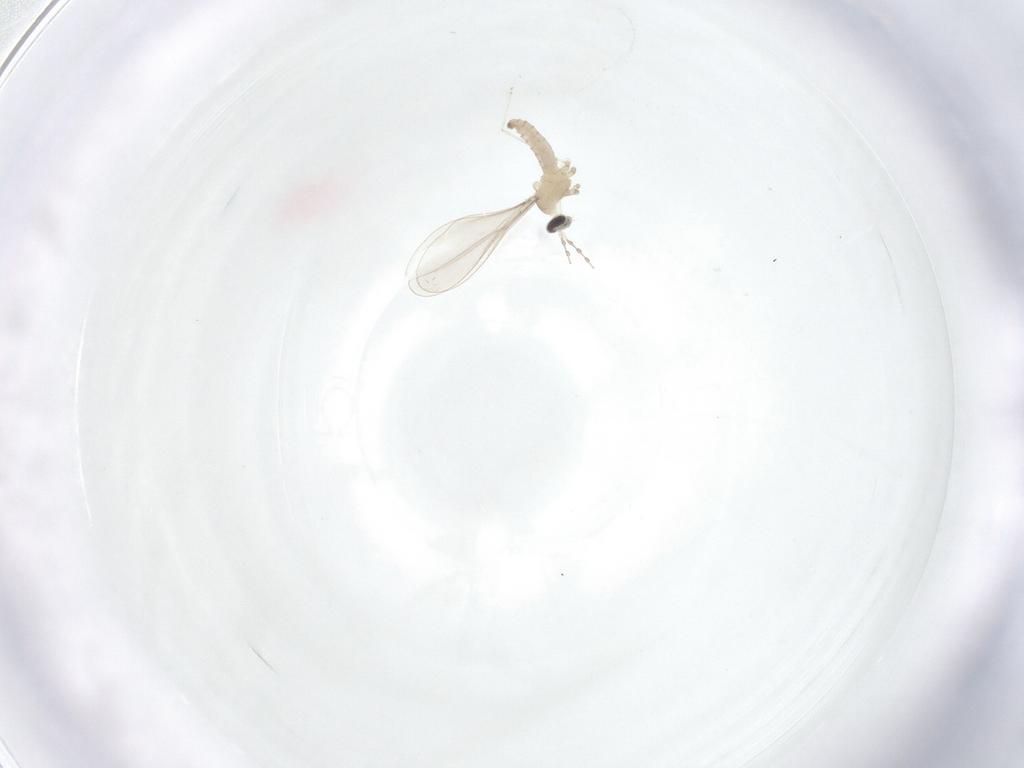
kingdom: Animalia
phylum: Arthropoda
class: Insecta
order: Diptera
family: Cecidomyiidae
